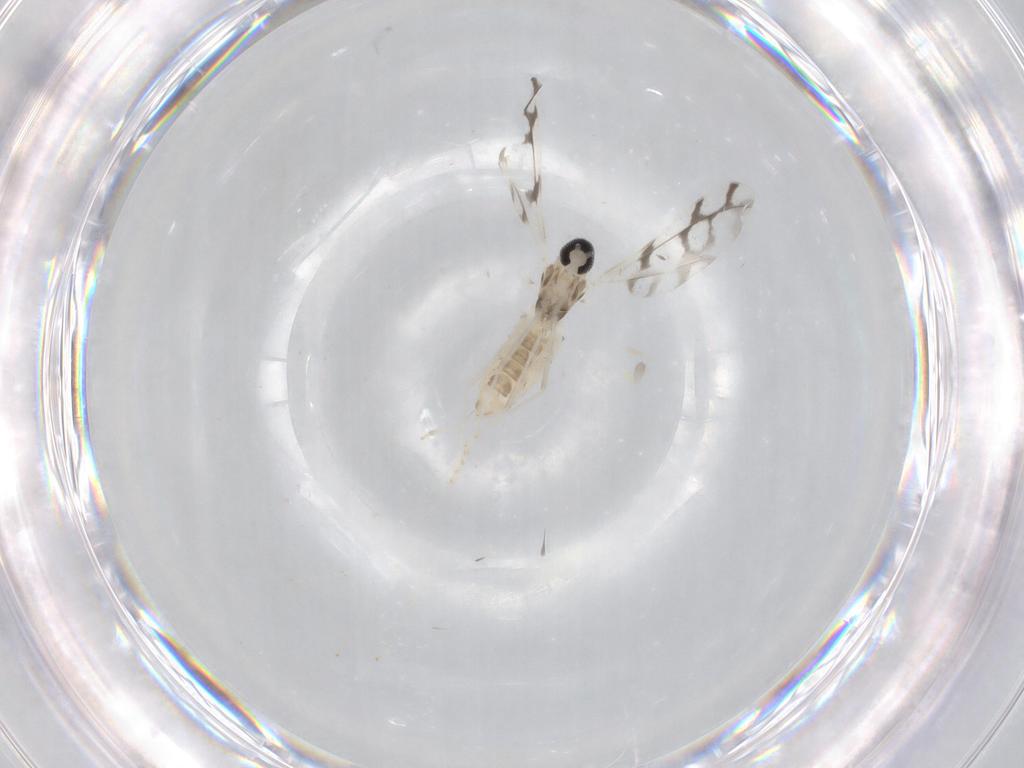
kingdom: Animalia
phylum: Arthropoda
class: Insecta
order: Diptera
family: Cecidomyiidae
